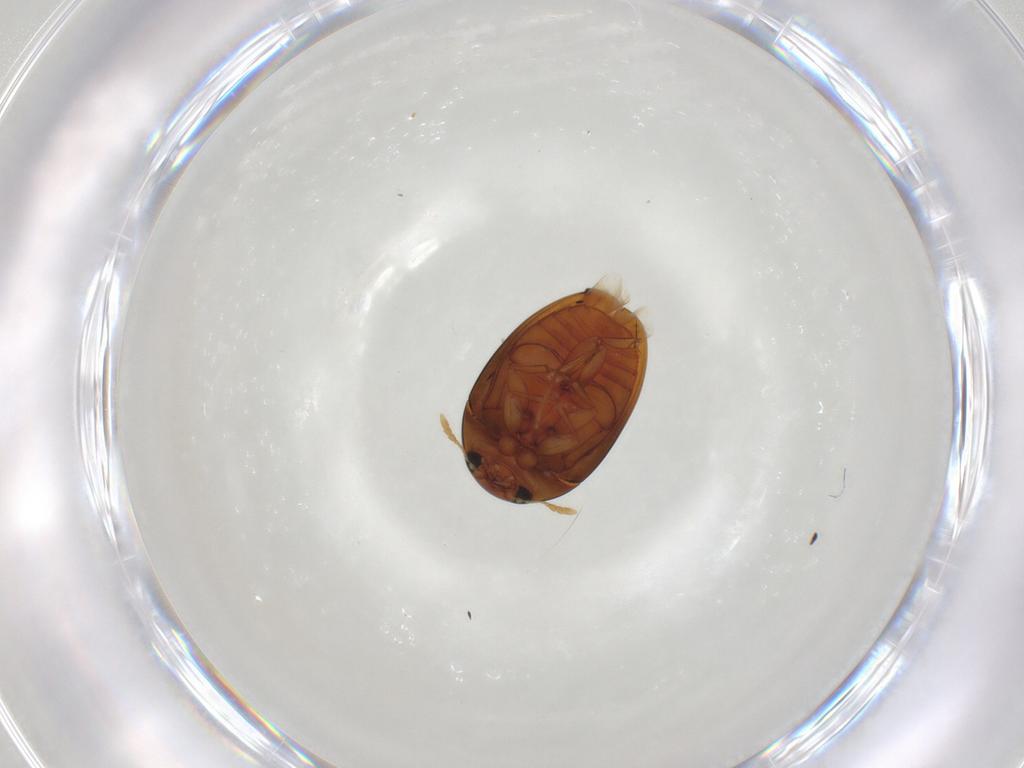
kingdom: Animalia
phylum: Arthropoda
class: Insecta
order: Coleoptera
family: Phalacridae
